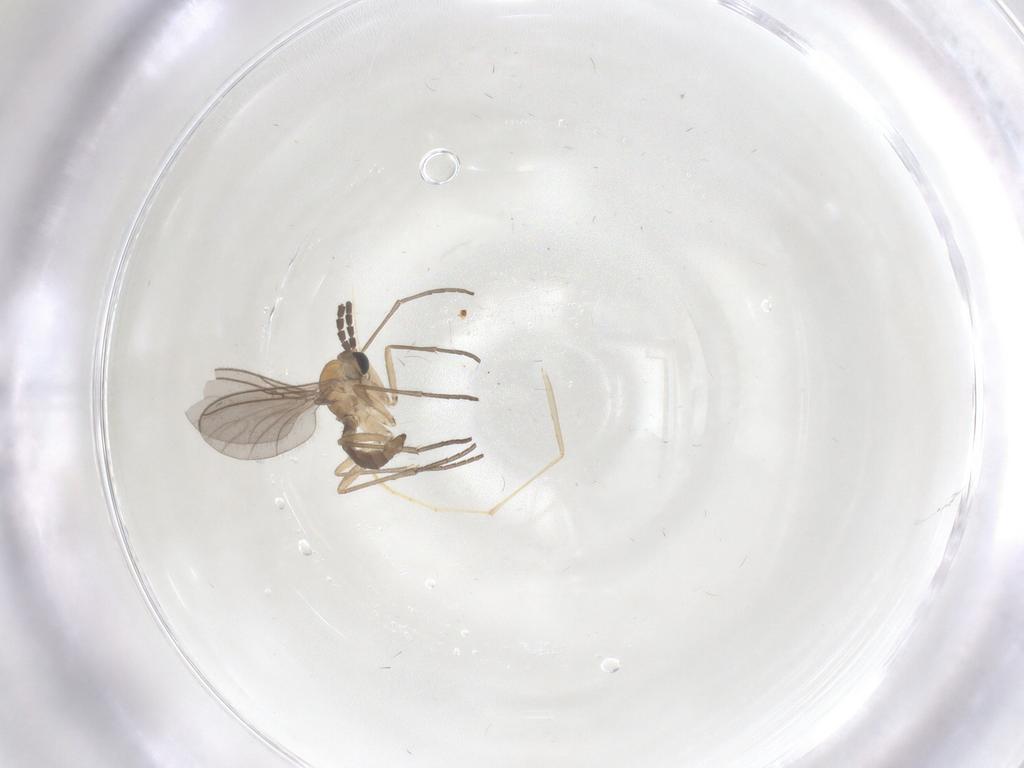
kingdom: Animalia
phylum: Arthropoda
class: Insecta
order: Diptera
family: Sciaridae
